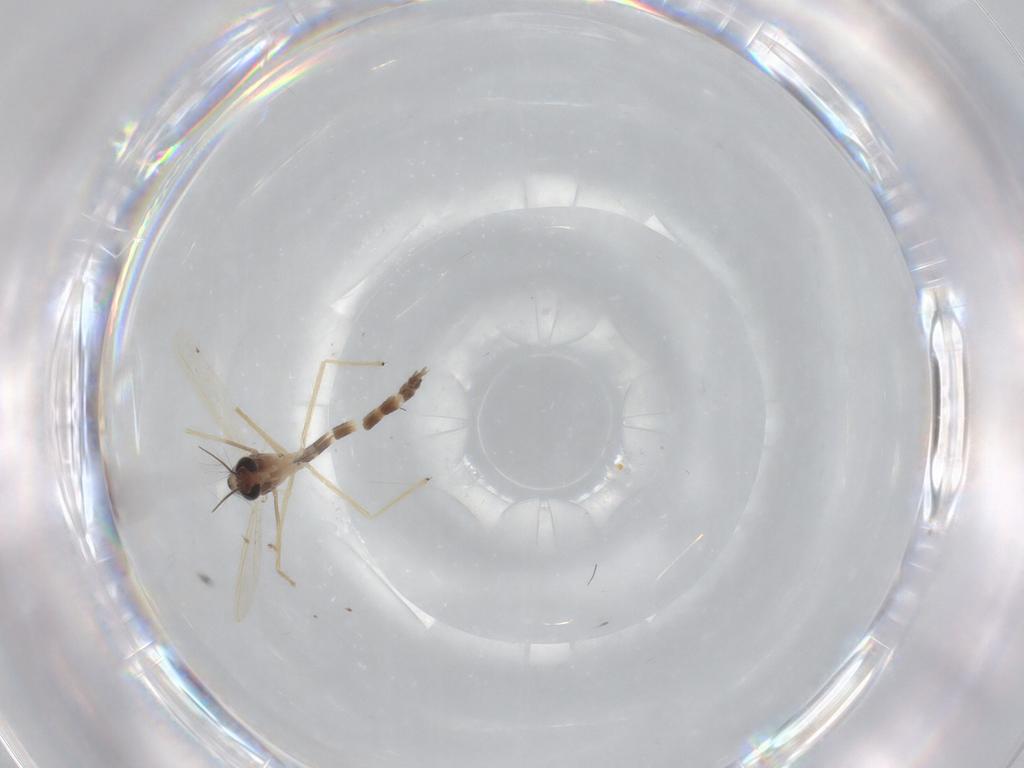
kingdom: Animalia
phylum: Arthropoda
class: Insecta
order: Diptera
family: Chironomidae
